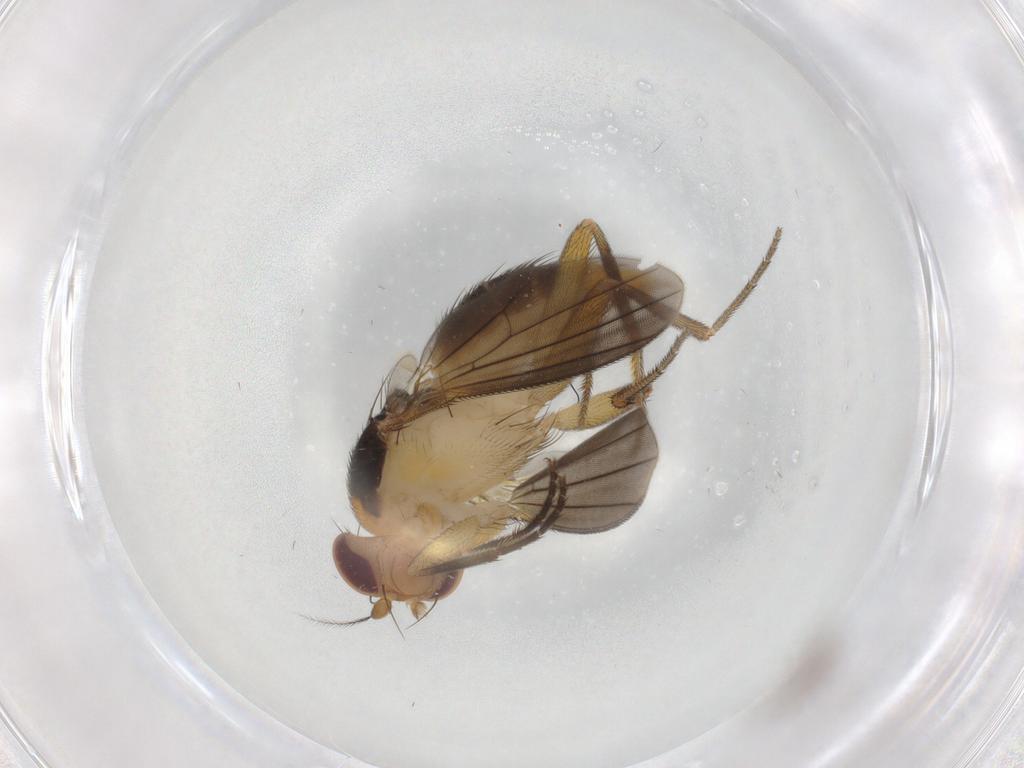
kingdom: Animalia
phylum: Arthropoda
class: Insecta
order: Diptera
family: Clusiidae
